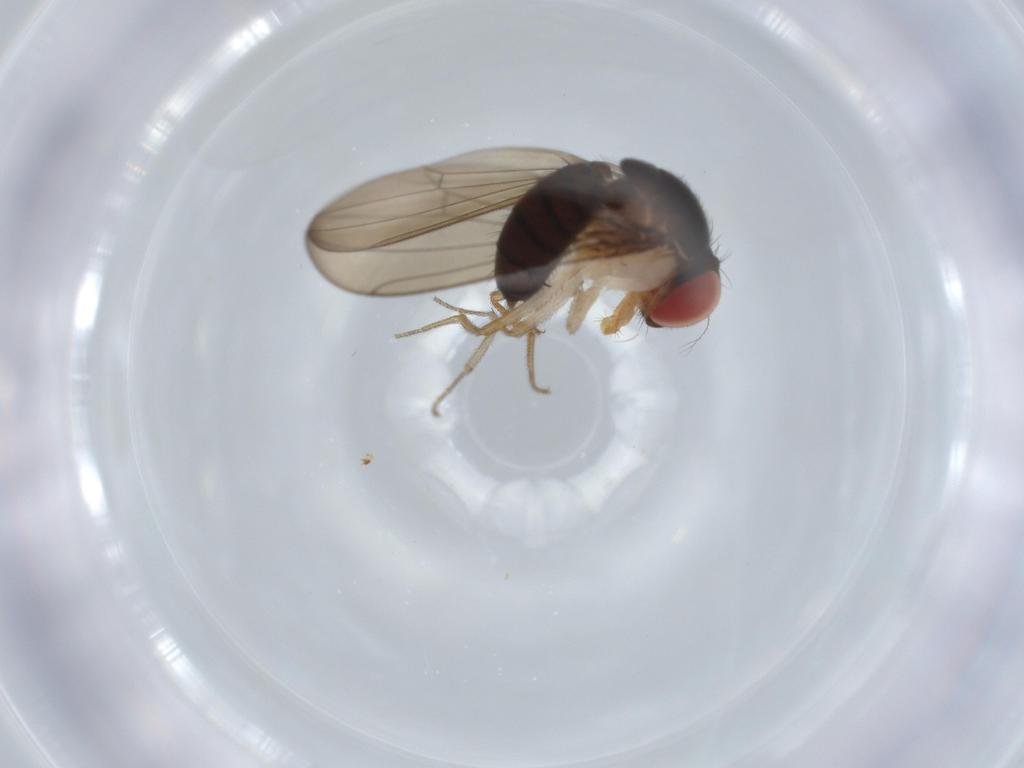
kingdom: Animalia
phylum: Arthropoda
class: Insecta
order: Diptera
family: Drosophilidae
